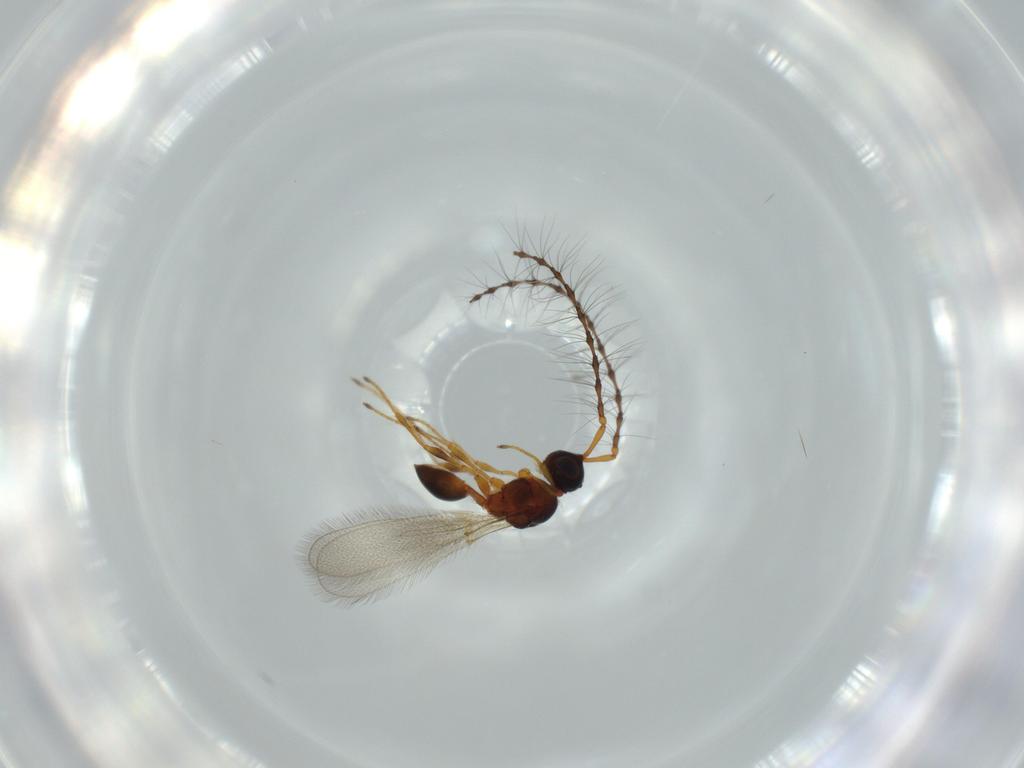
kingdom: Animalia
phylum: Arthropoda
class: Insecta
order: Hymenoptera
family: Diapriidae
